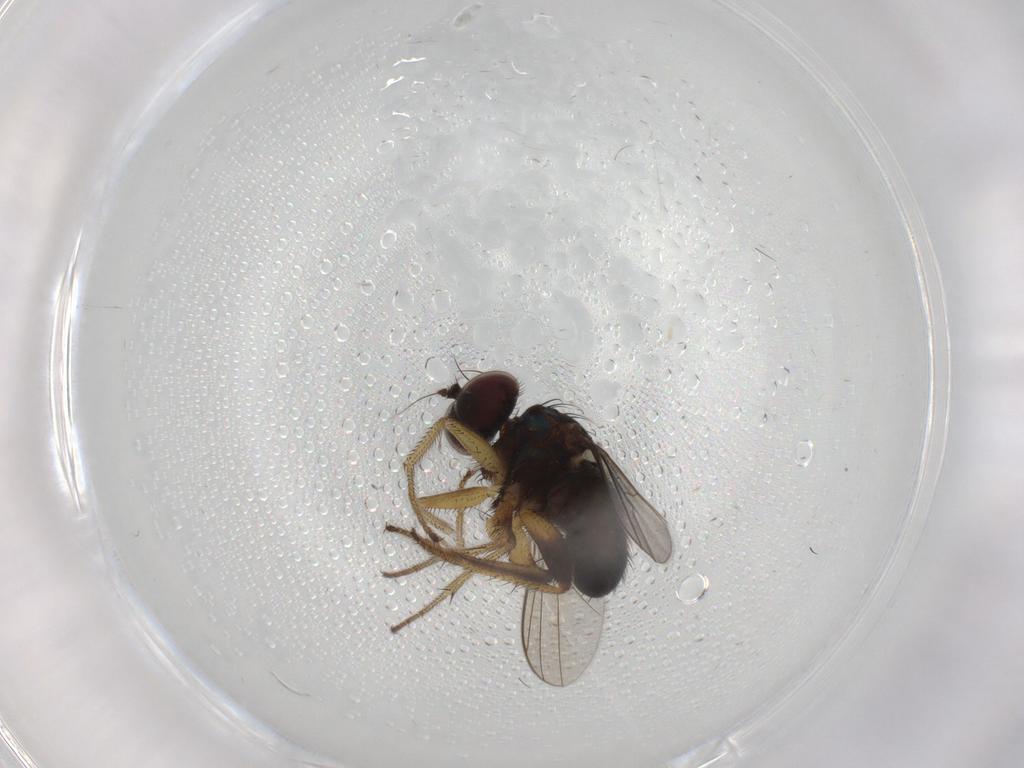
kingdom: Animalia
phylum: Arthropoda
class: Insecta
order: Diptera
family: Dolichopodidae
